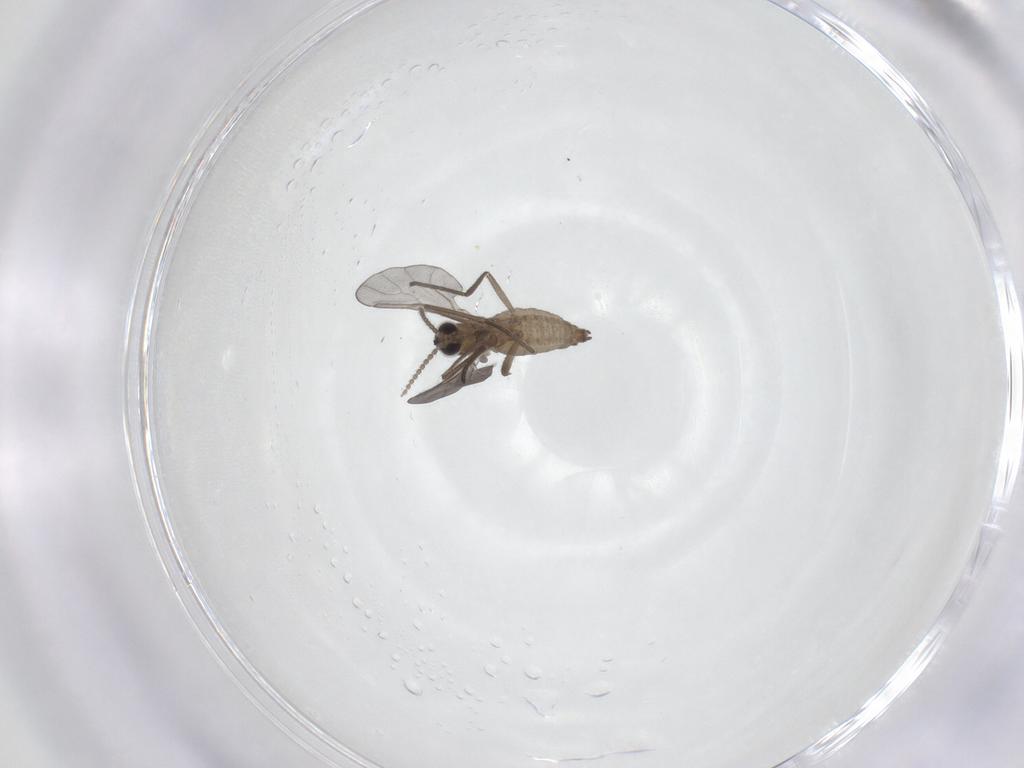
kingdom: Animalia
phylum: Arthropoda
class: Insecta
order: Diptera
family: Cecidomyiidae
